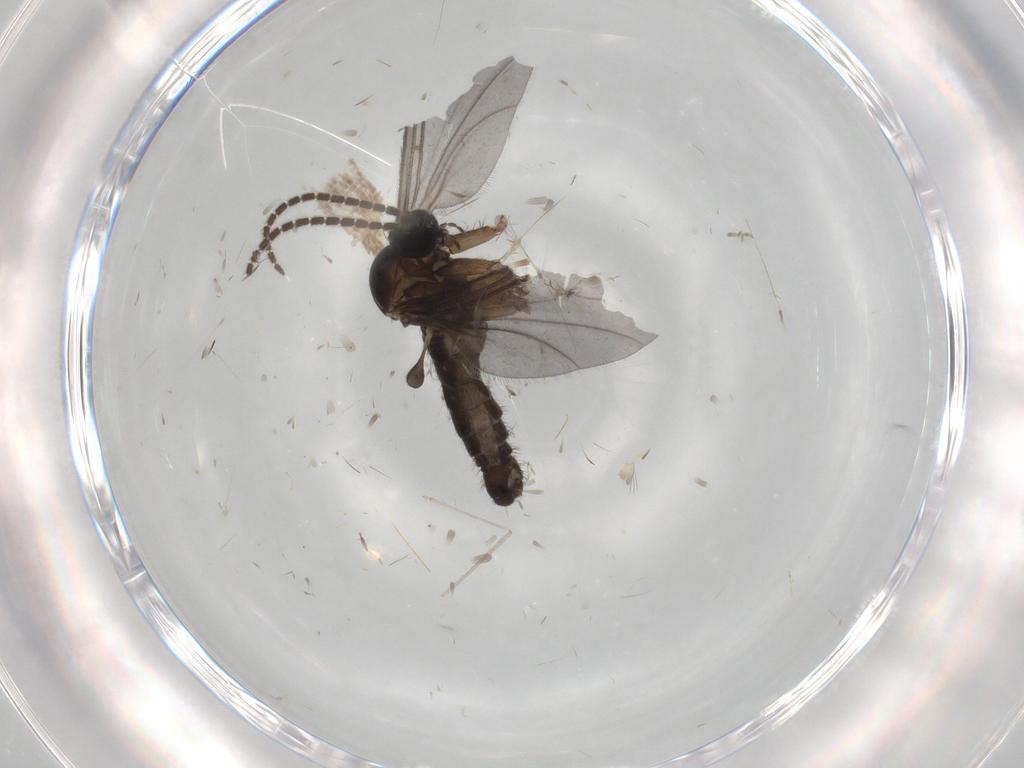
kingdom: Animalia
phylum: Arthropoda
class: Insecta
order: Diptera
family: Sciaridae
